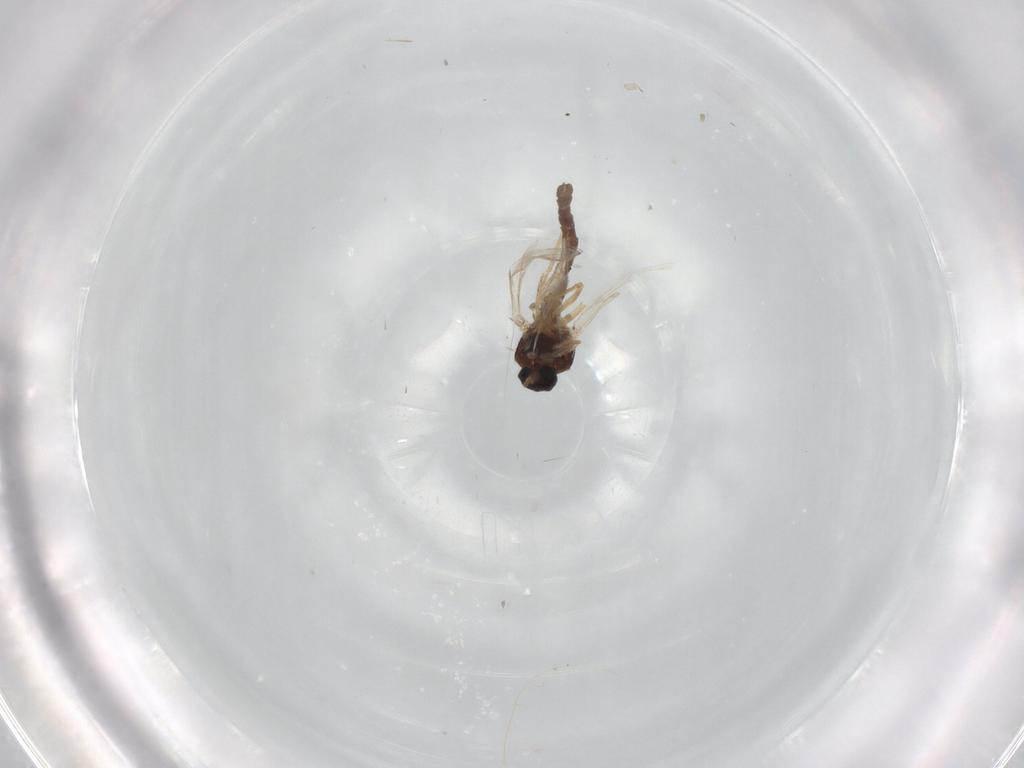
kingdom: Animalia
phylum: Arthropoda
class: Insecta
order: Diptera
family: Ceratopogonidae
